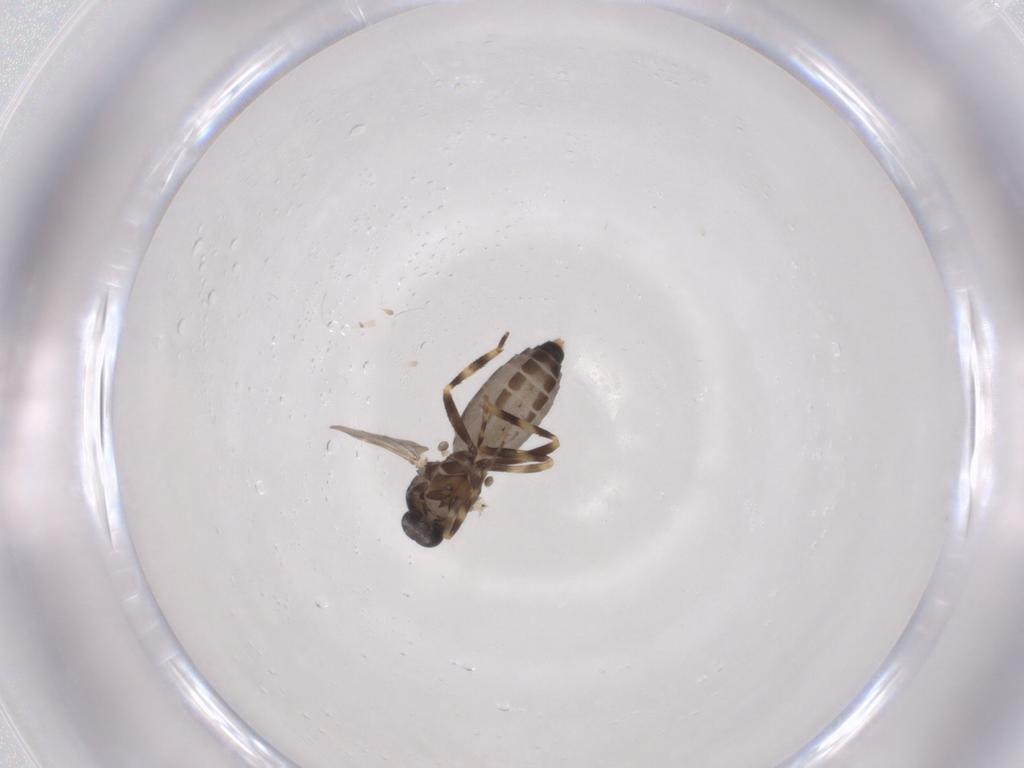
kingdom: Animalia
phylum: Arthropoda
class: Insecta
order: Diptera
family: Ceratopogonidae
